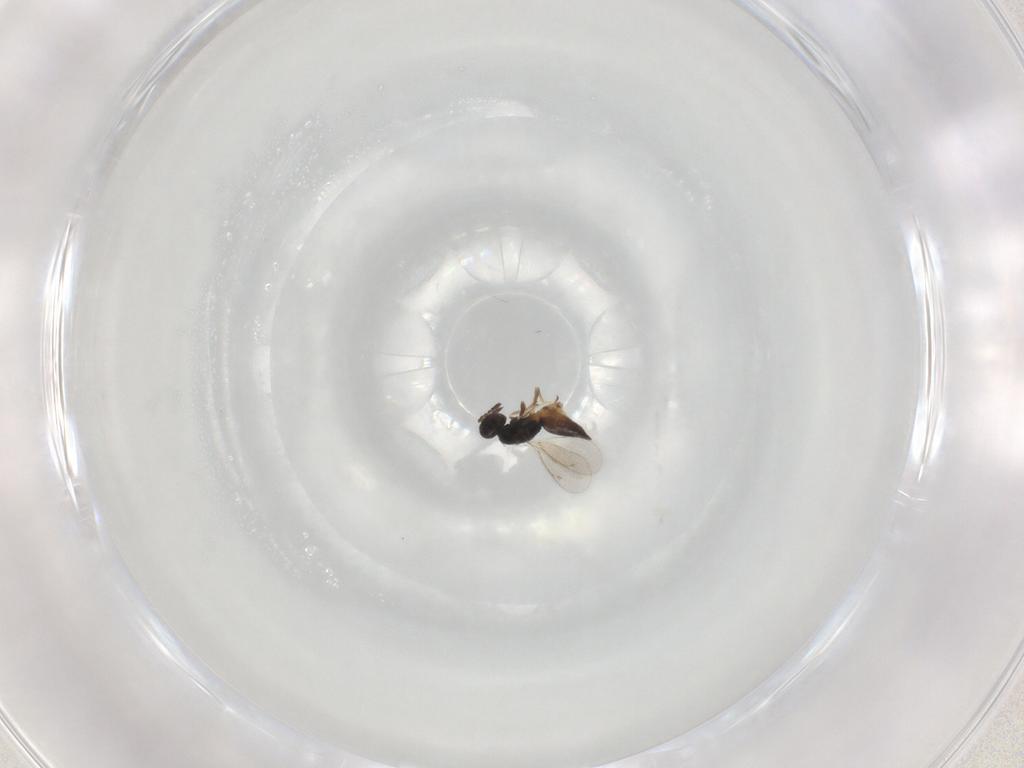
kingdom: Animalia
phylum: Arthropoda
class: Insecta
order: Hymenoptera
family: Eulophidae
